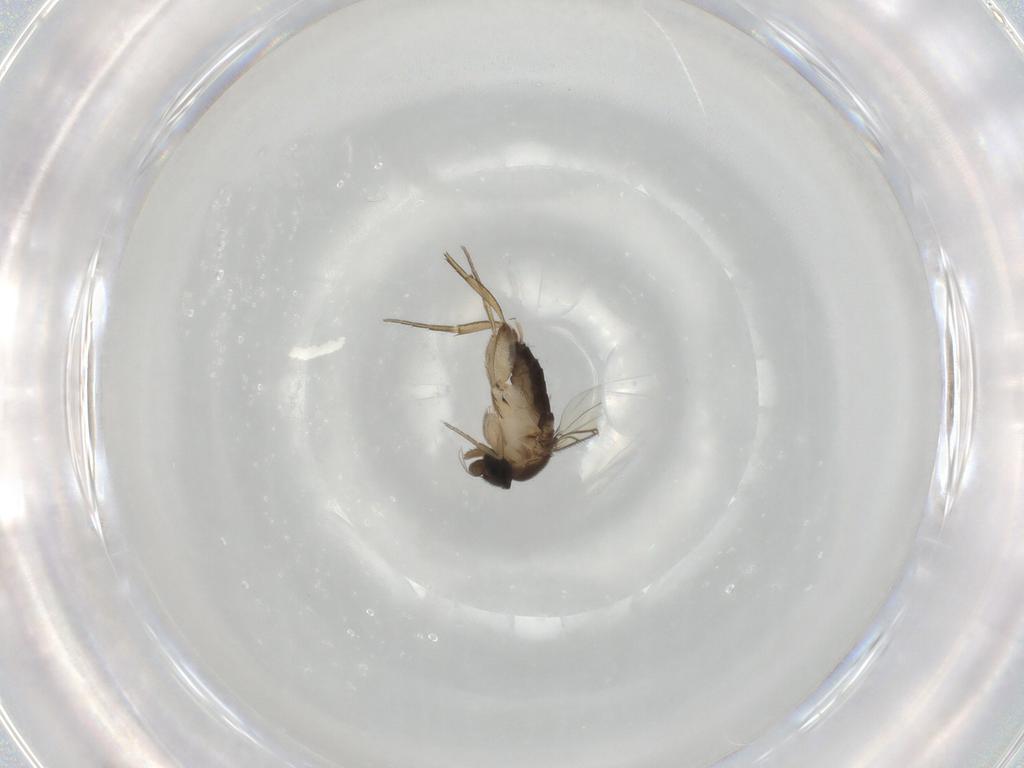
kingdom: Animalia
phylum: Arthropoda
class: Insecta
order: Diptera
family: Phoridae
